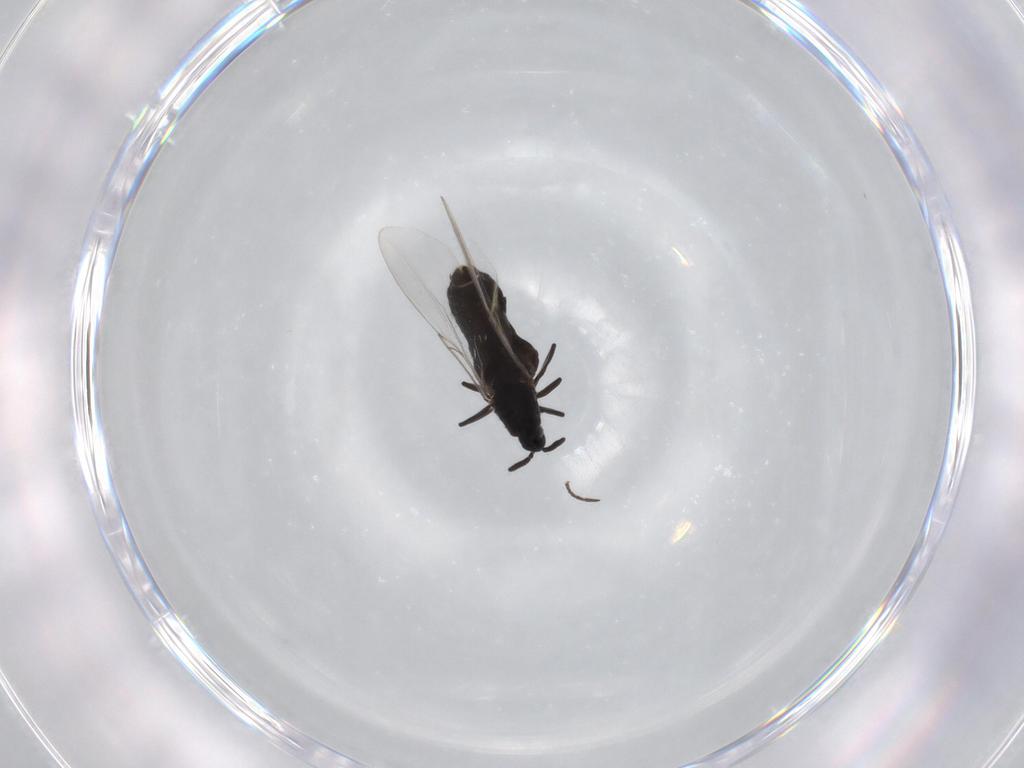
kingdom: Animalia
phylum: Arthropoda
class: Insecta
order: Diptera
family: Scatopsidae
